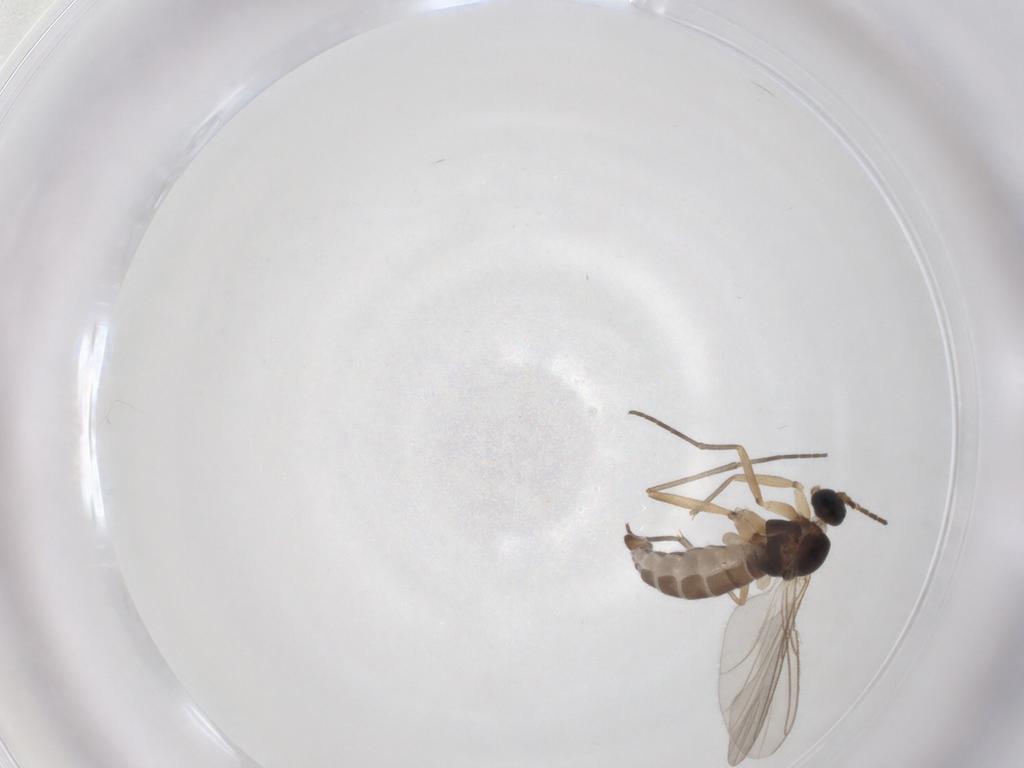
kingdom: Animalia
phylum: Arthropoda
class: Insecta
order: Diptera
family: Sciaridae
